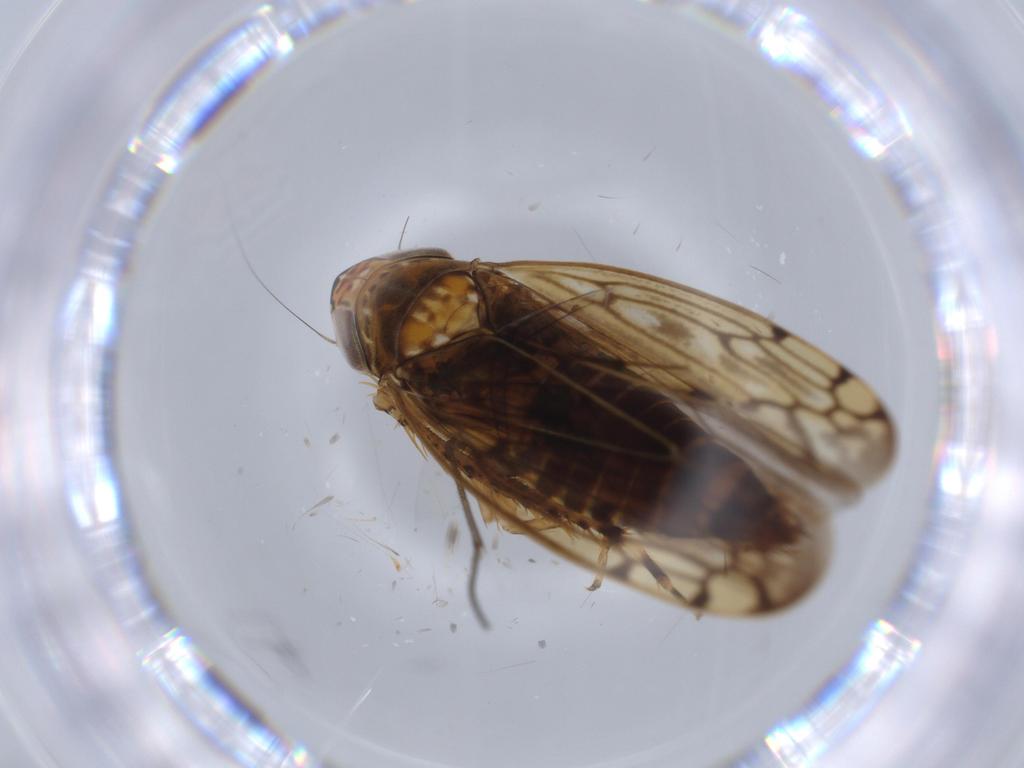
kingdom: Animalia
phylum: Arthropoda
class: Insecta
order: Hemiptera
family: Cicadellidae
